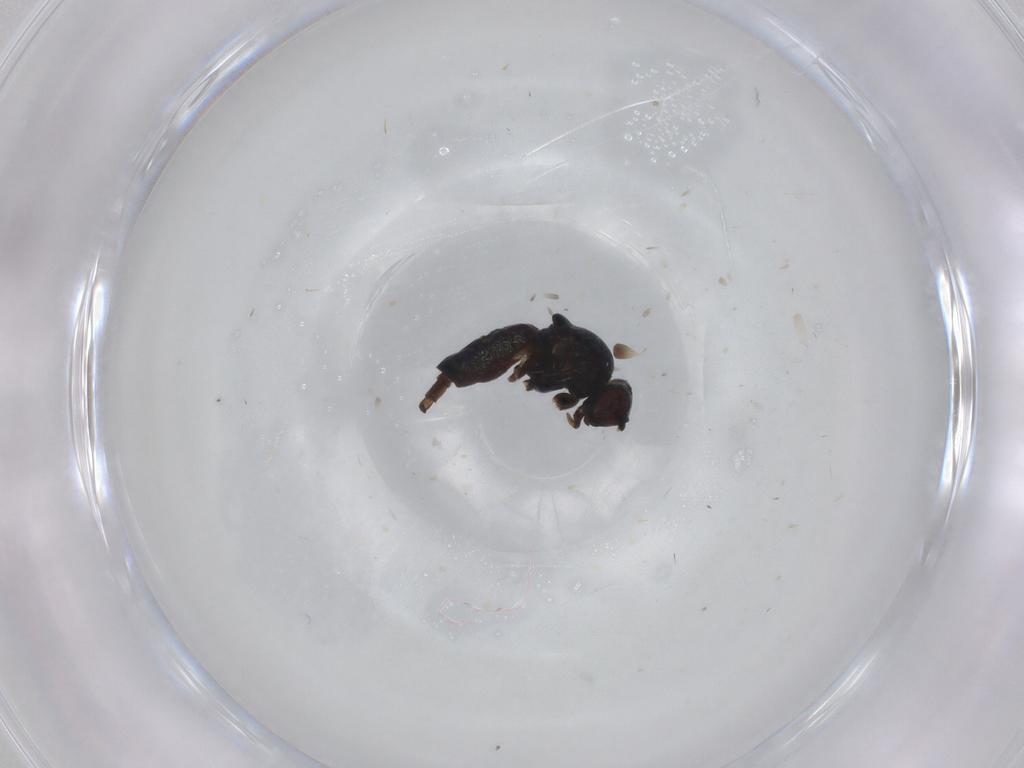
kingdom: Animalia
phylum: Arthropoda
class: Insecta
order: Diptera
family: Chloropidae
